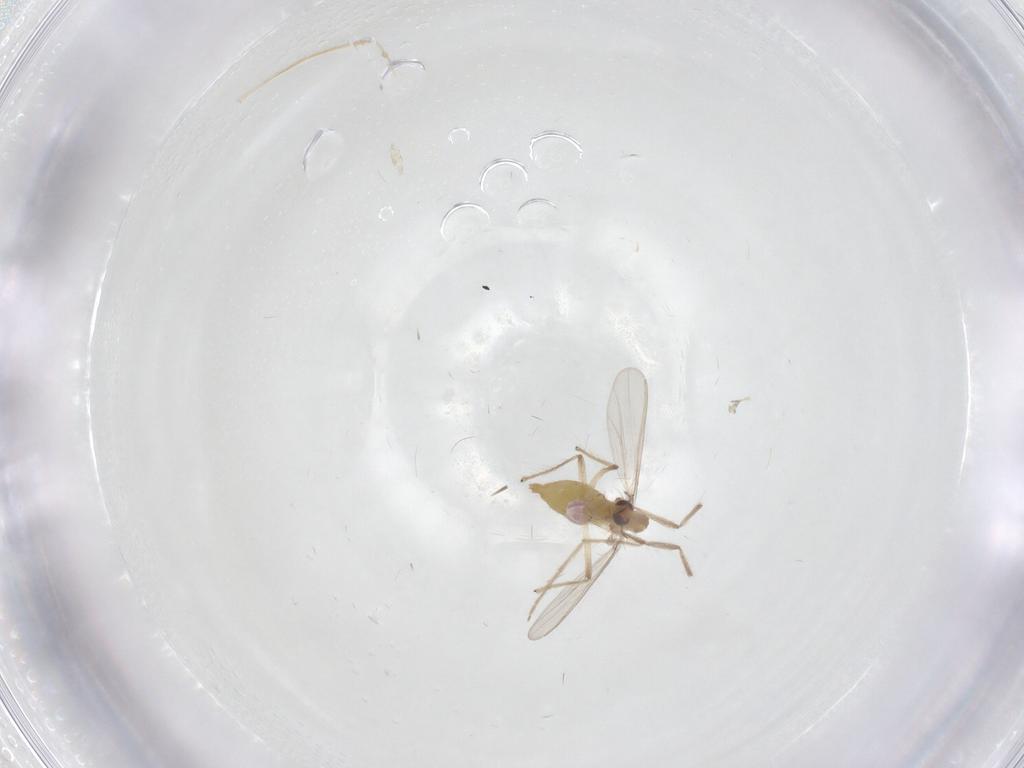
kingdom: Animalia
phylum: Arthropoda
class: Insecta
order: Diptera
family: Chironomidae
